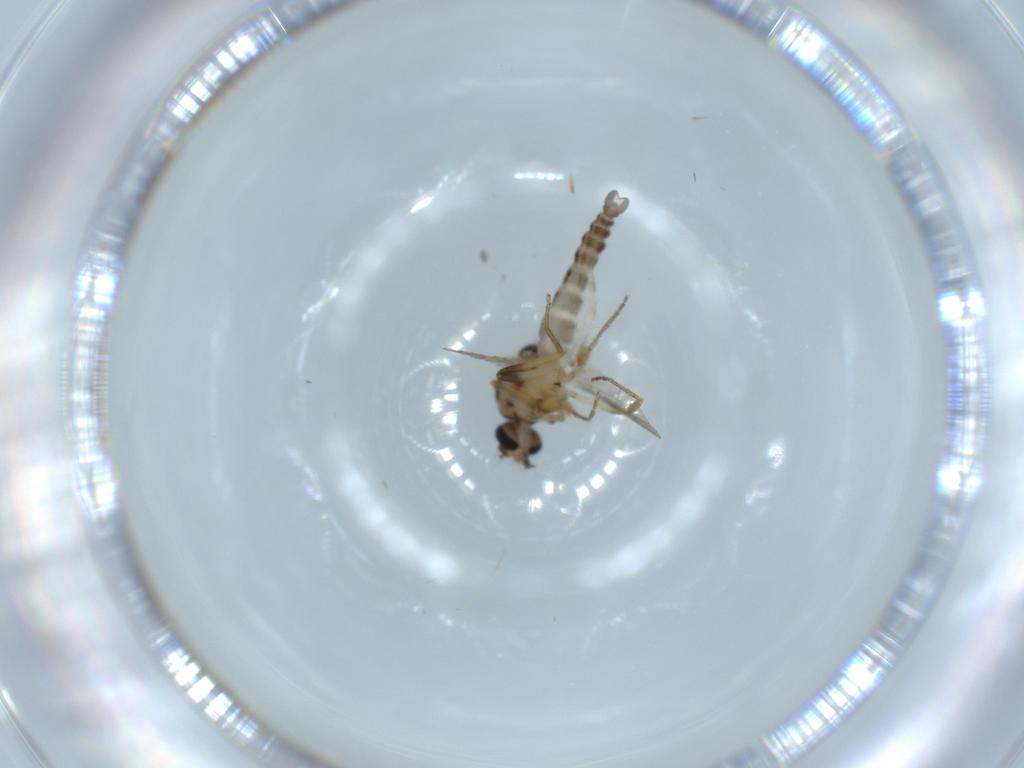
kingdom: Animalia
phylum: Arthropoda
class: Insecta
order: Diptera
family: Ceratopogonidae
